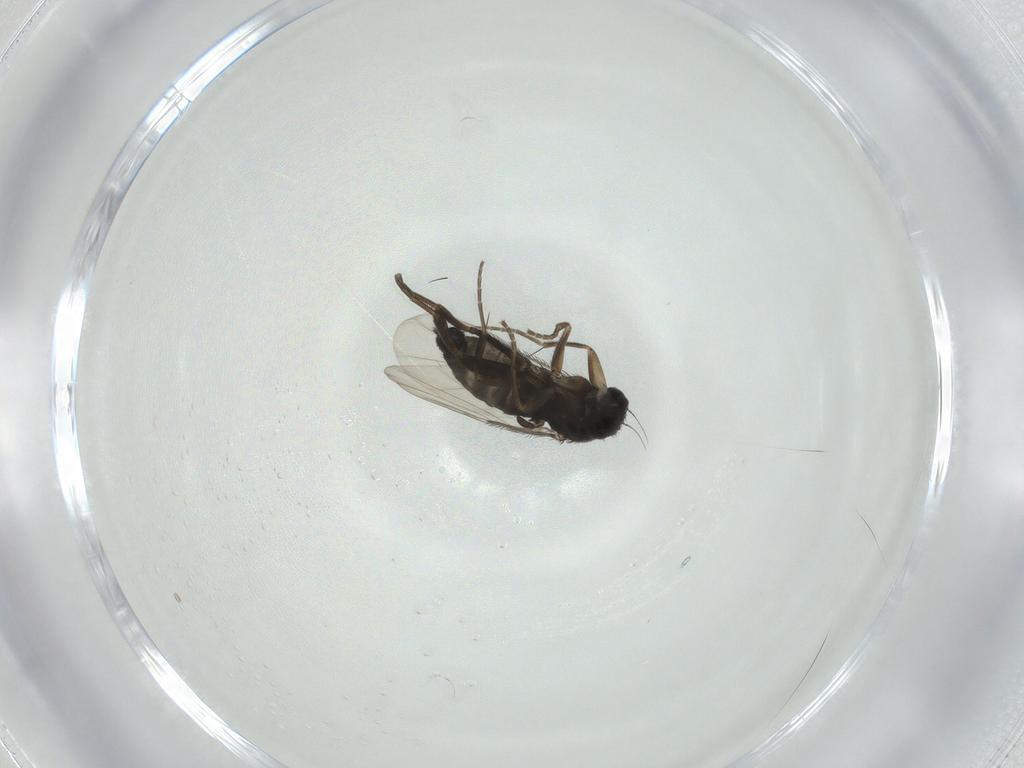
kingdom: Animalia
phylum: Arthropoda
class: Insecta
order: Diptera
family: Phoridae
